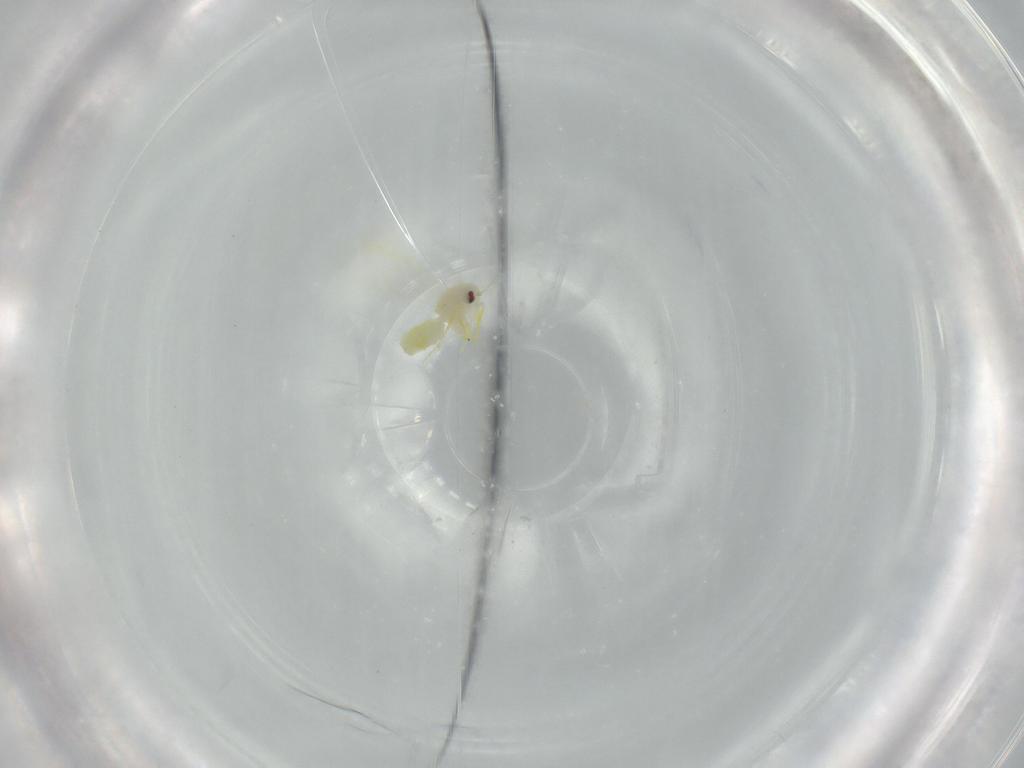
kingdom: Animalia
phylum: Arthropoda
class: Insecta
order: Hemiptera
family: Aleyrodidae
